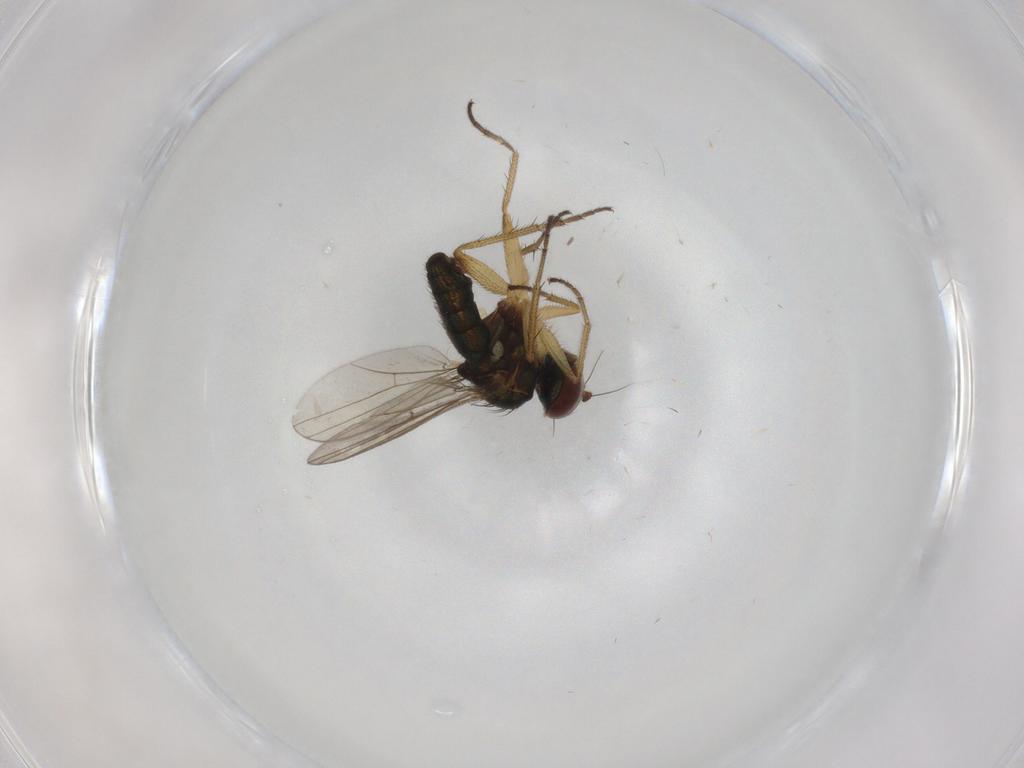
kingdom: Animalia
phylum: Arthropoda
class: Insecta
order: Diptera
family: Dolichopodidae
